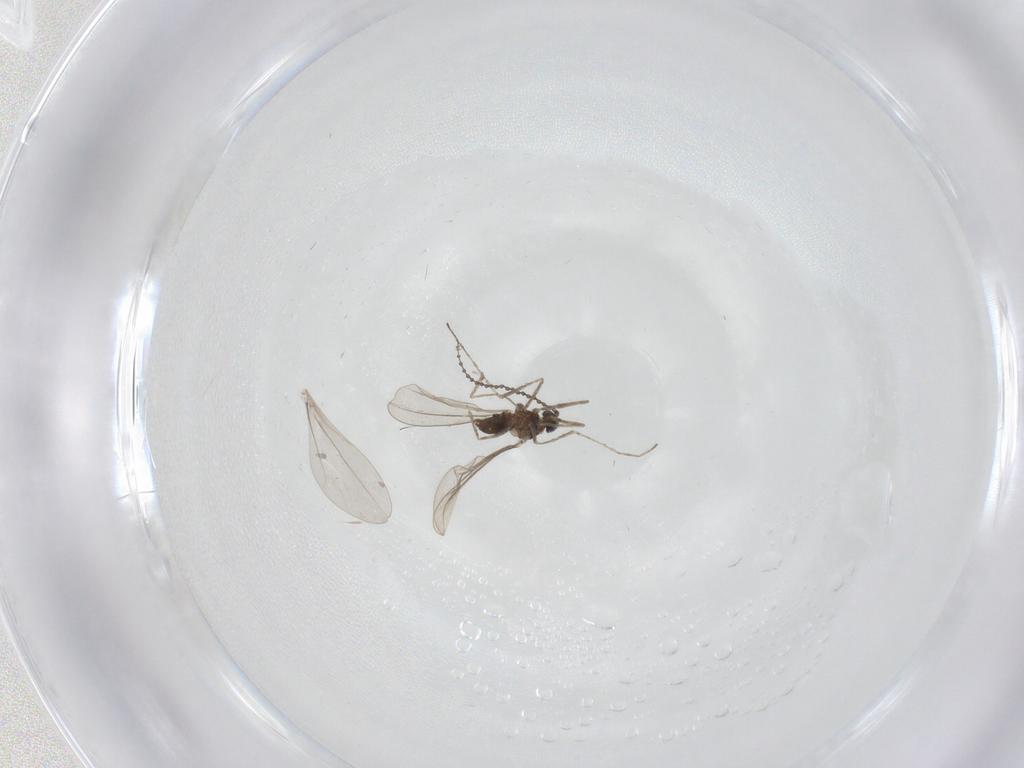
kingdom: Animalia
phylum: Arthropoda
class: Insecta
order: Diptera
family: Cecidomyiidae
